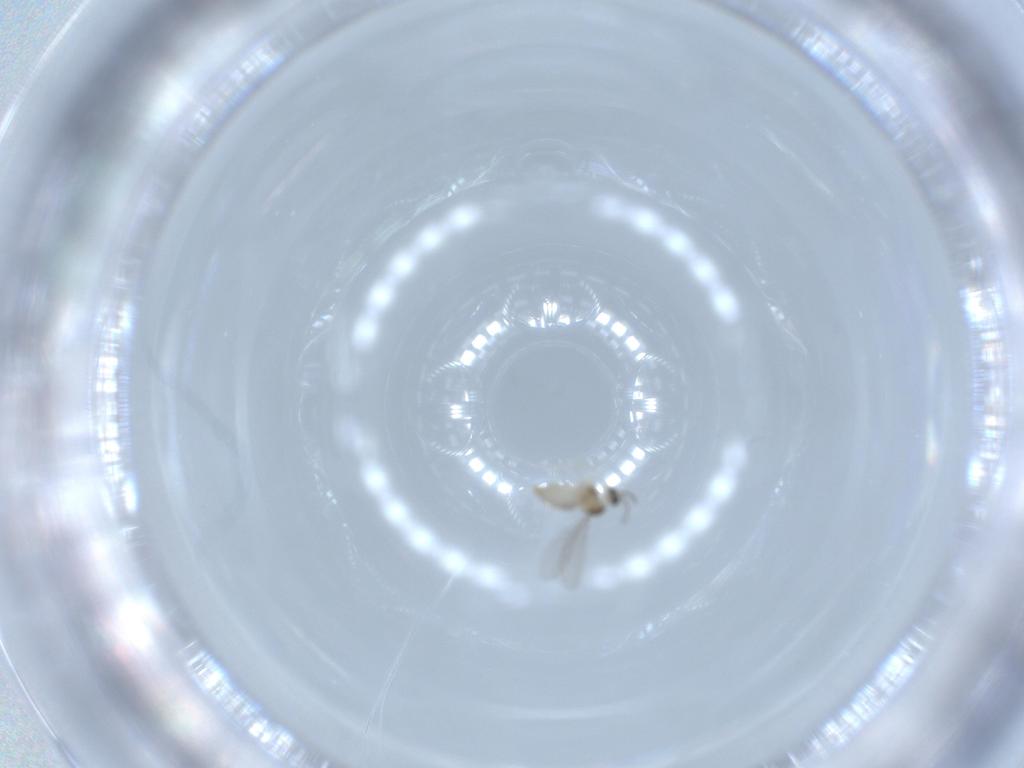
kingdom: Animalia
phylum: Arthropoda
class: Insecta
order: Diptera
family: Cecidomyiidae
